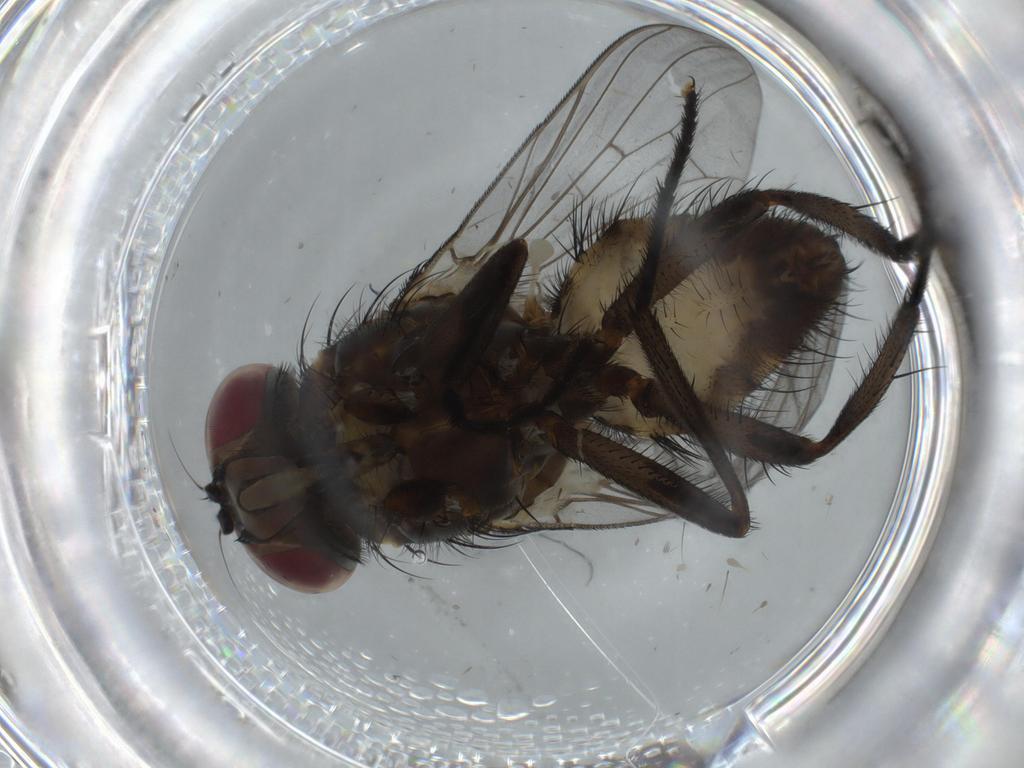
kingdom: Animalia
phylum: Arthropoda
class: Insecta
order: Diptera
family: Fannia
